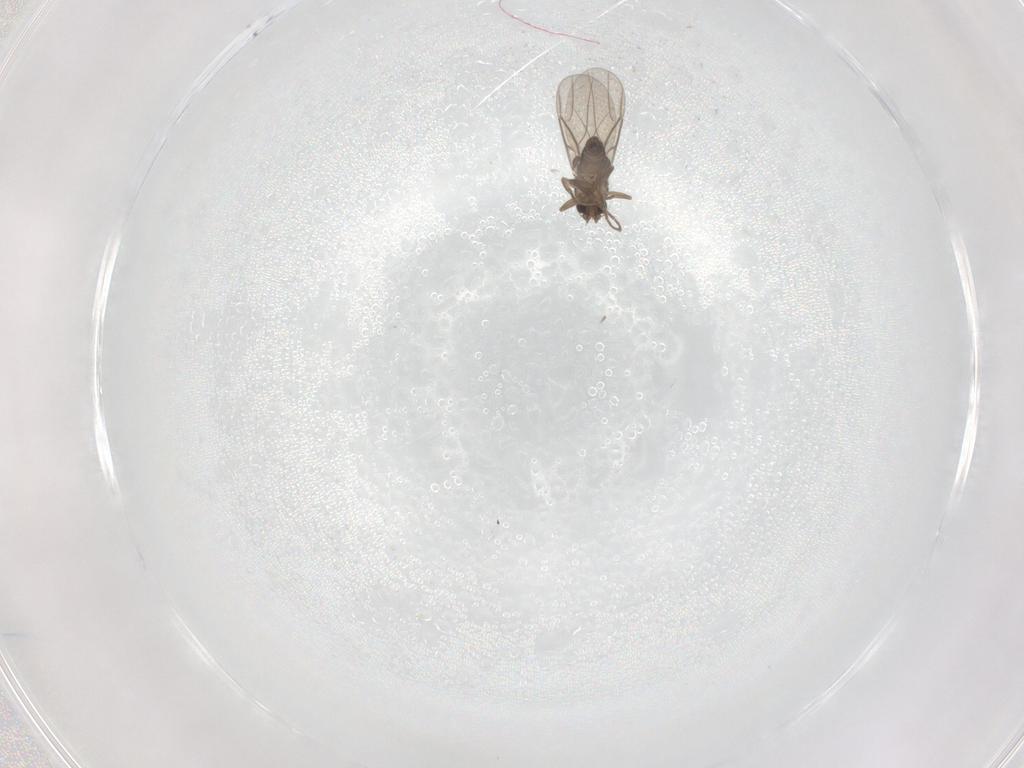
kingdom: Animalia
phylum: Arthropoda
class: Insecta
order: Diptera
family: Phoridae
